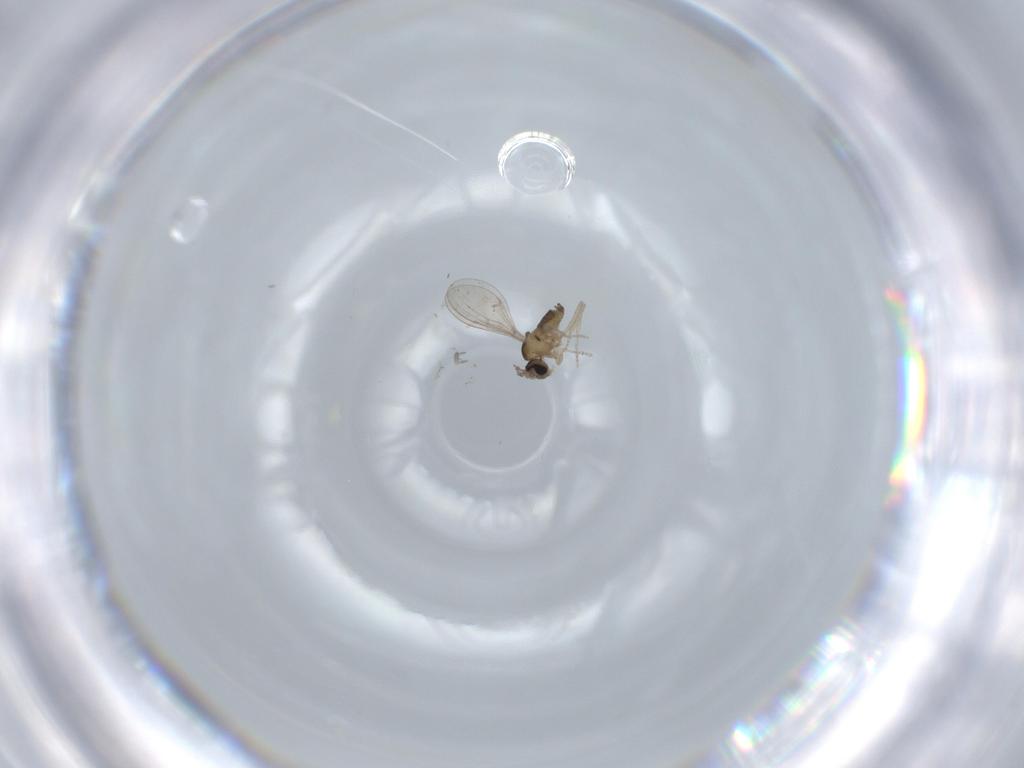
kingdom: Animalia
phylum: Arthropoda
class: Insecta
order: Diptera
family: Cecidomyiidae
